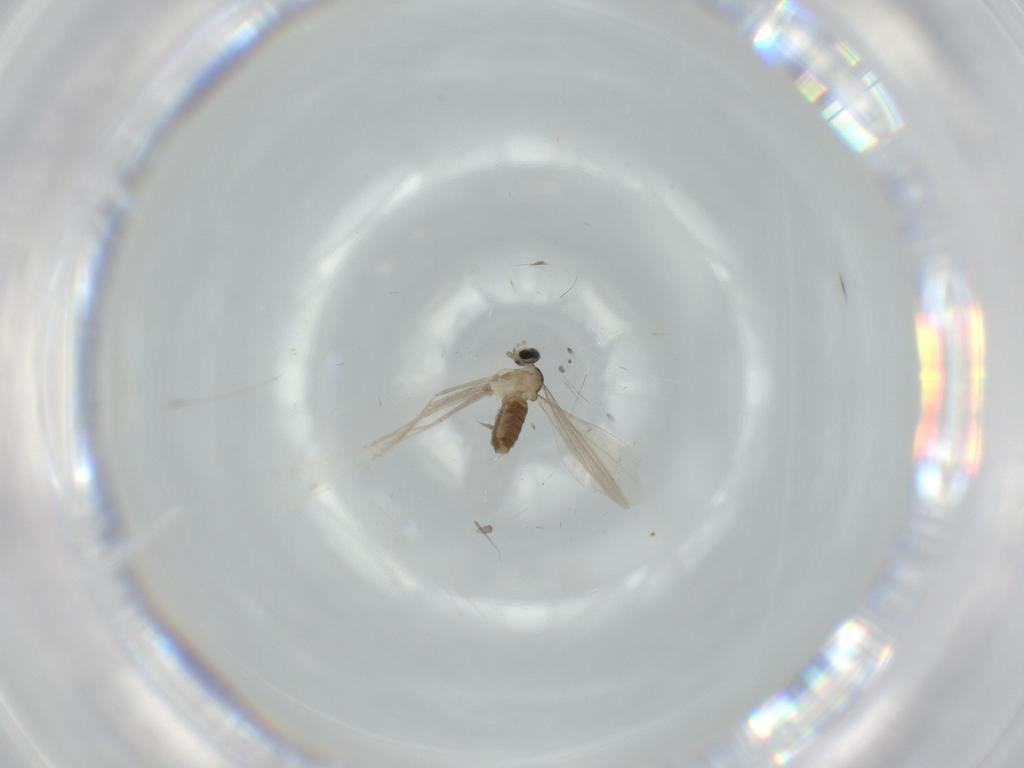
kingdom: Animalia
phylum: Arthropoda
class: Insecta
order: Diptera
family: Cecidomyiidae
